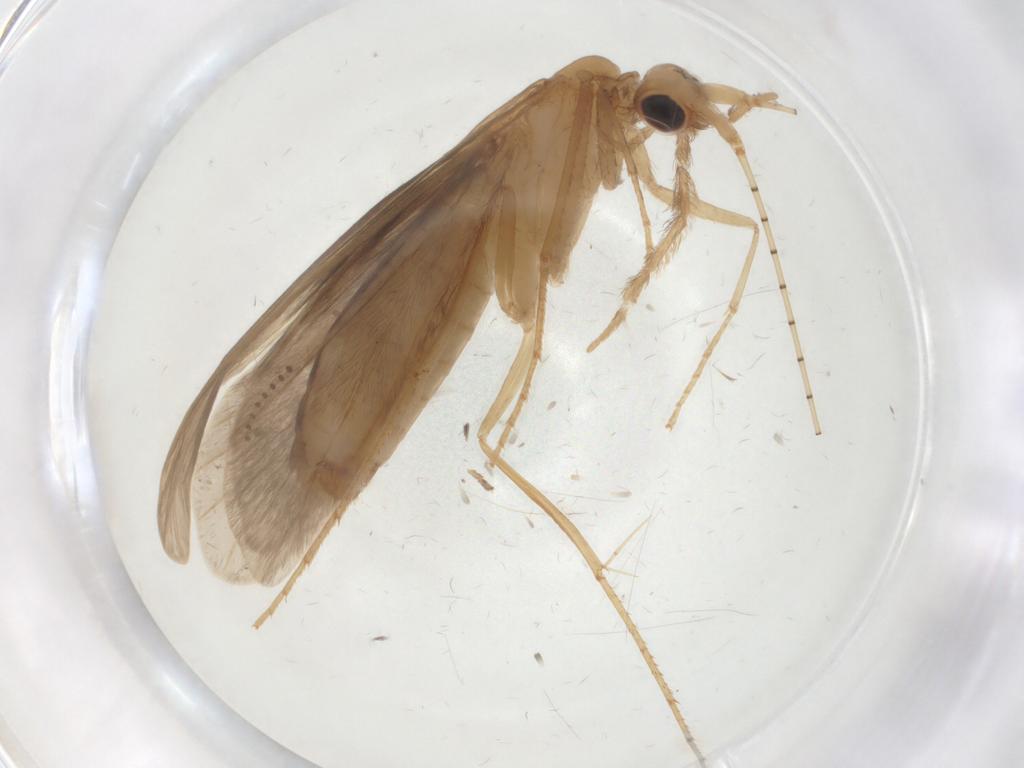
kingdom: Animalia
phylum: Arthropoda
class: Insecta
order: Trichoptera
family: Leptoceridae
